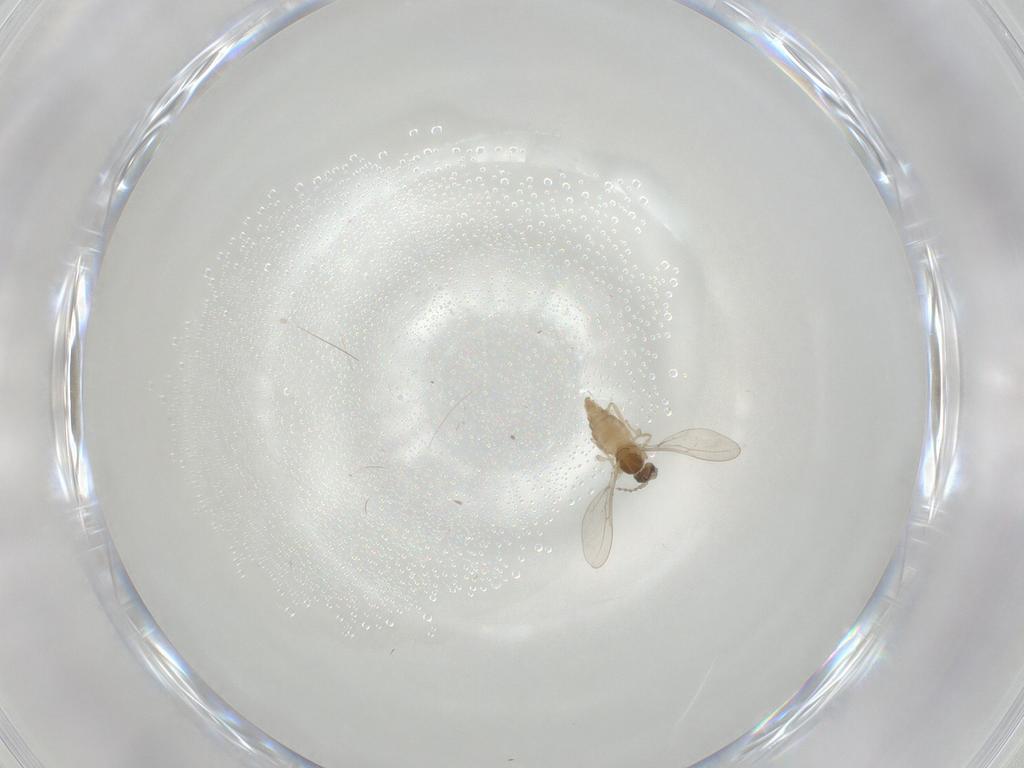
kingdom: Animalia
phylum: Arthropoda
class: Insecta
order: Diptera
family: Cecidomyiidae
